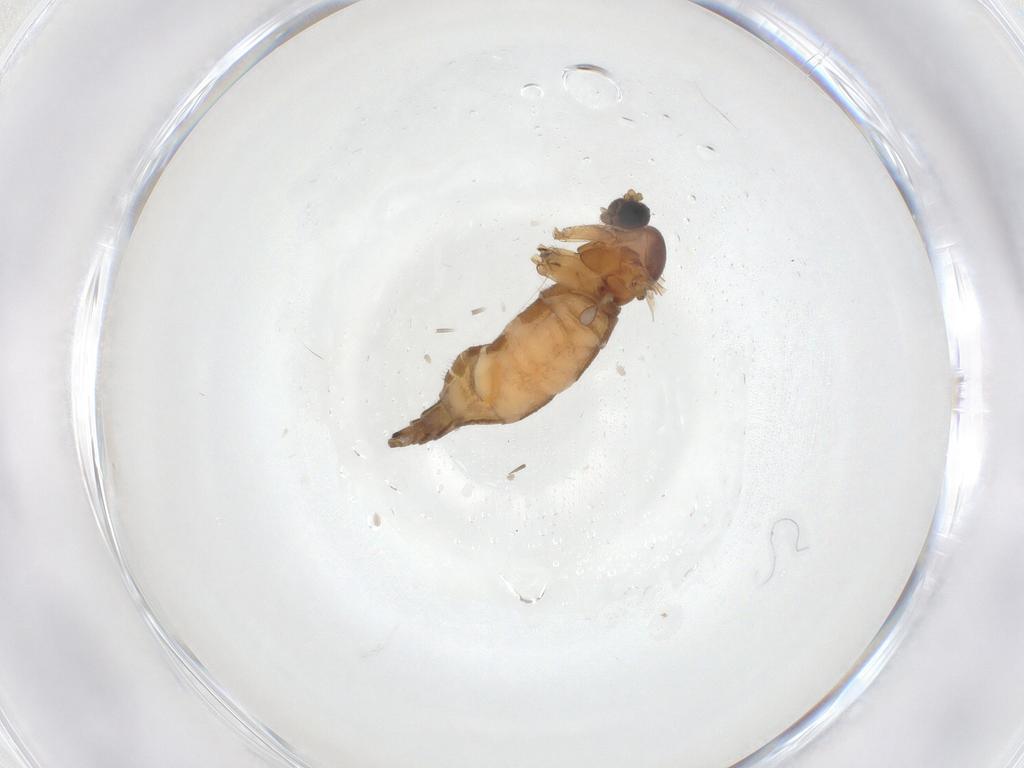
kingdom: Animalia
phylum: Arthropoda
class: Insecta
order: Diptera
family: Sciaridae
